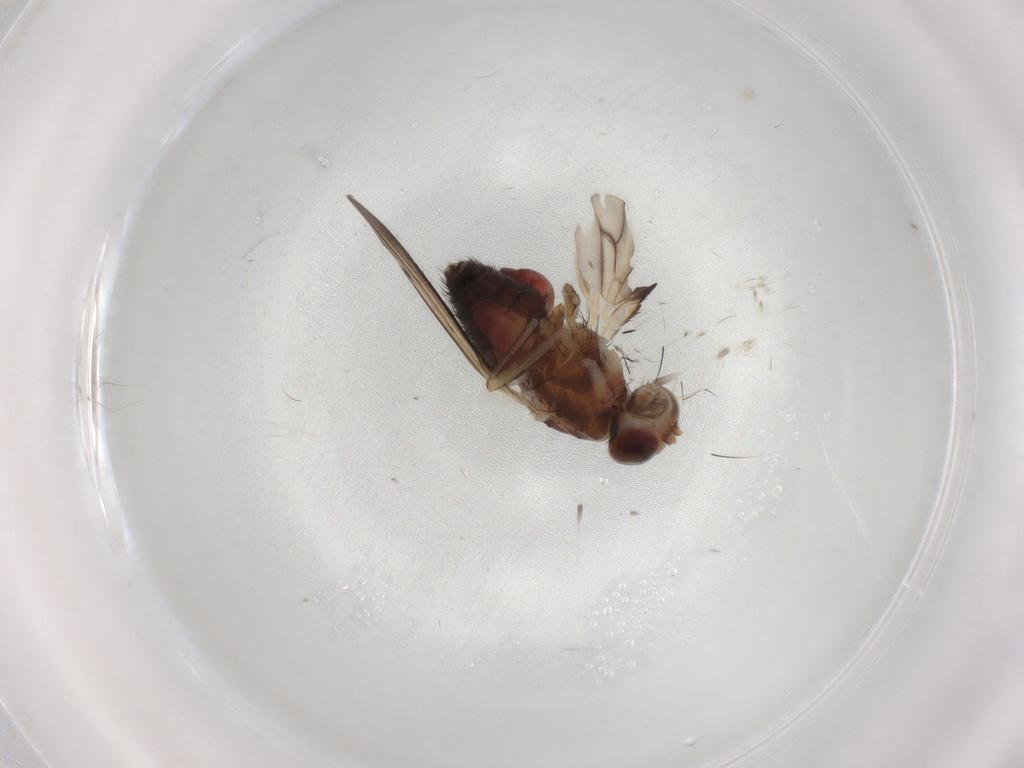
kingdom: Animalia
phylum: Arthropoda
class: Insecta
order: Diptera
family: Heleomyzidae
